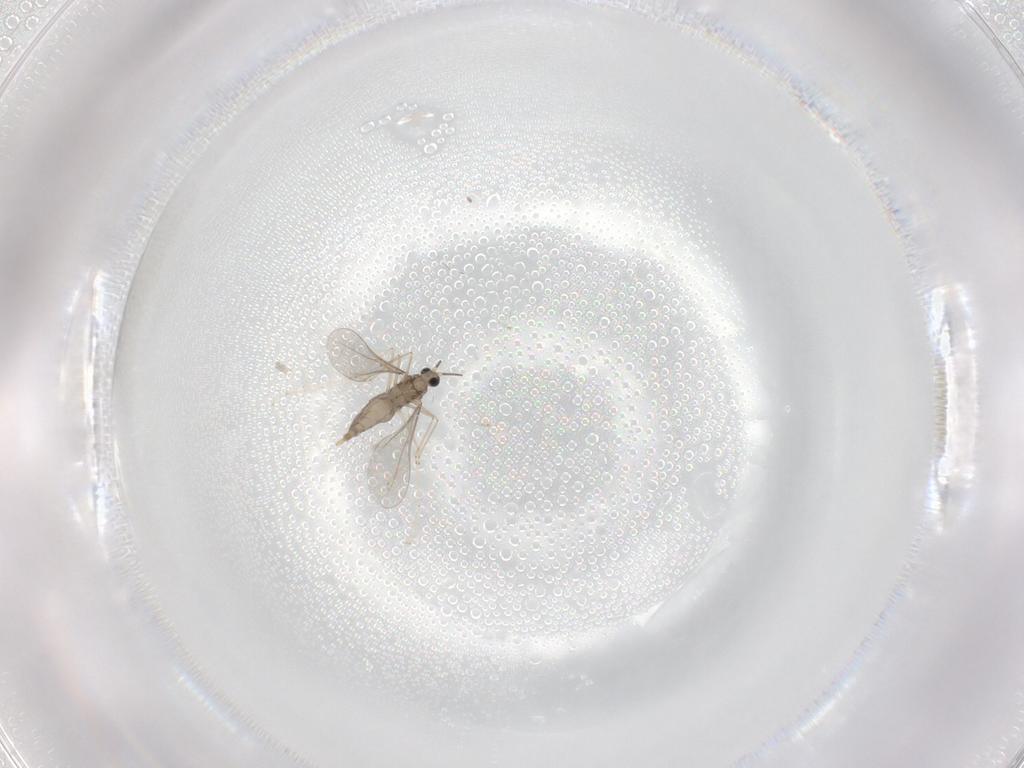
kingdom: Animalia
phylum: Arthropoda
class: Insecta
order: Diptera
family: Cecidomyiidae
